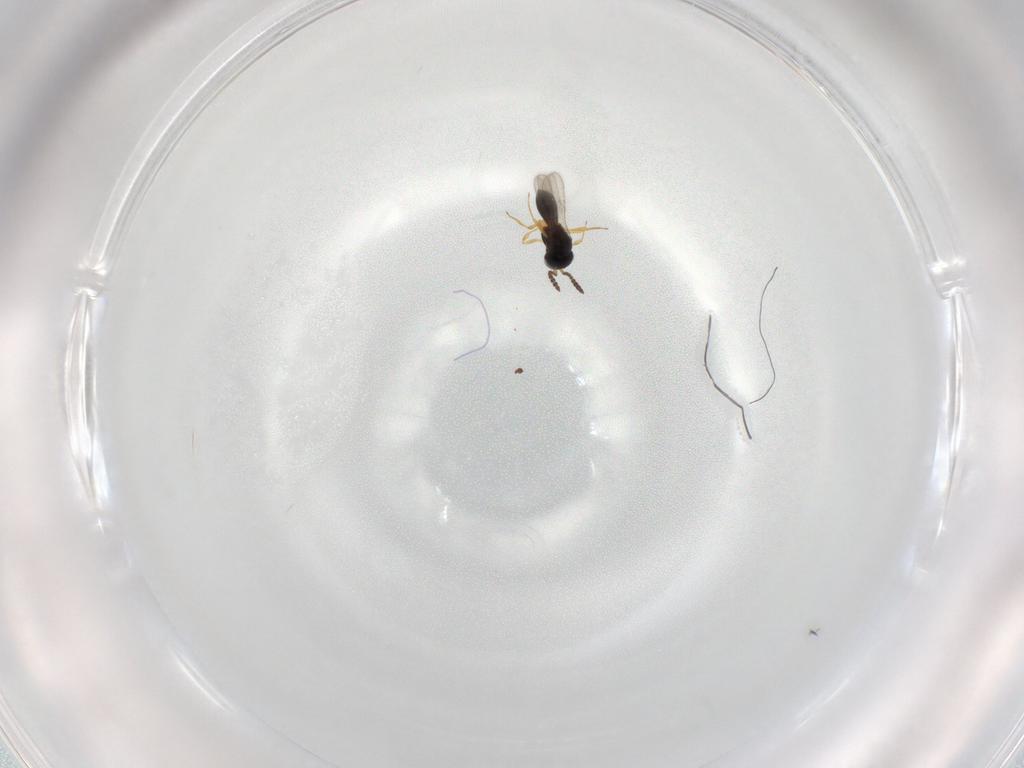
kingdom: Animalia
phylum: Arthropoda
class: Insecta
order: Hymenoptera
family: Scelionidae
